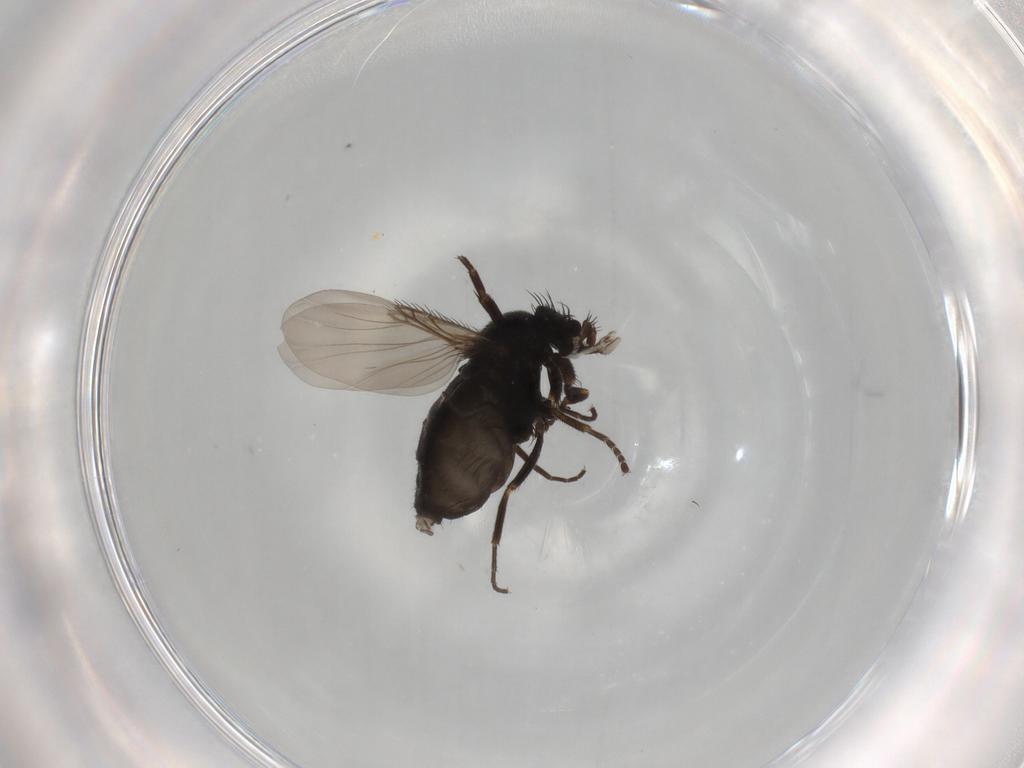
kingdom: Animalia
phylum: Arthropoda
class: Insecta
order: Diptera
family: Phoridae
